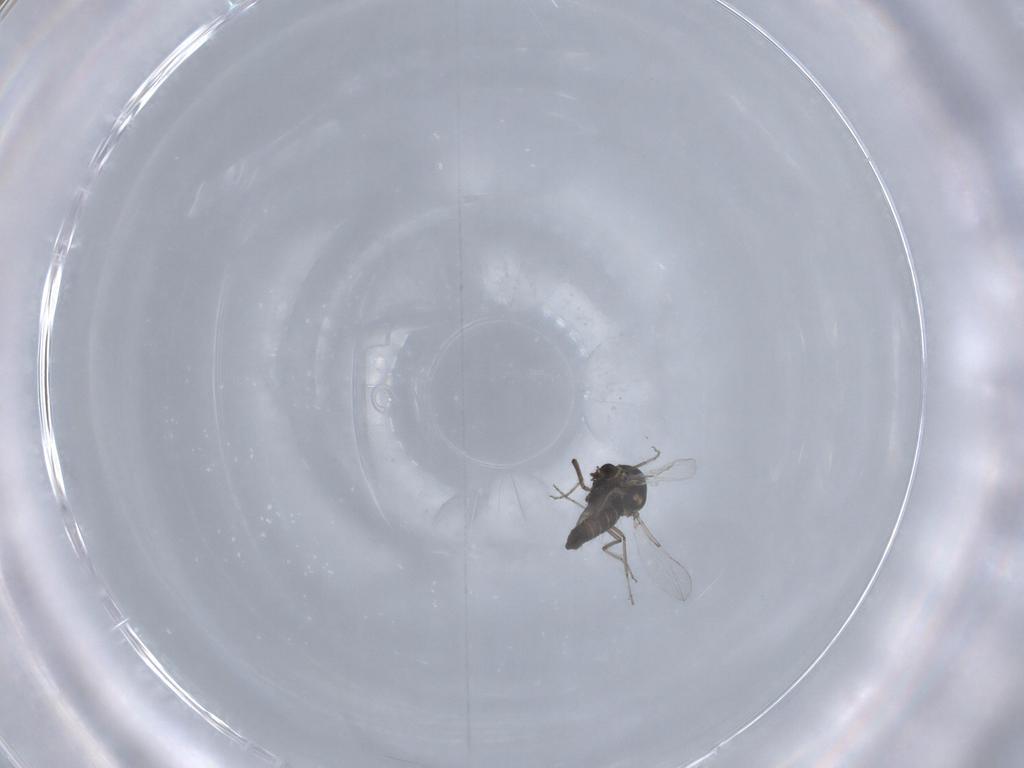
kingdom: Animalia
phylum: Arthropoda
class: Insecta
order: Diptera
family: Ceratopogonidae
